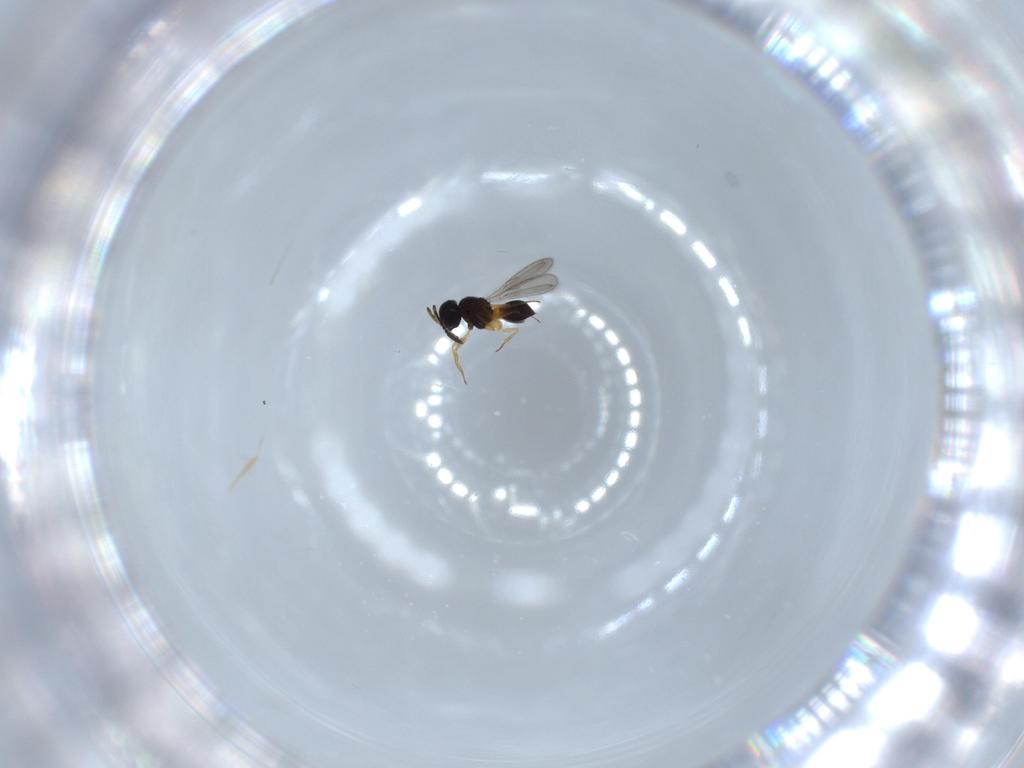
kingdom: Animalia
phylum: Arthropoda
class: Insecta
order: Hymenoptera
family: Scelionidae
